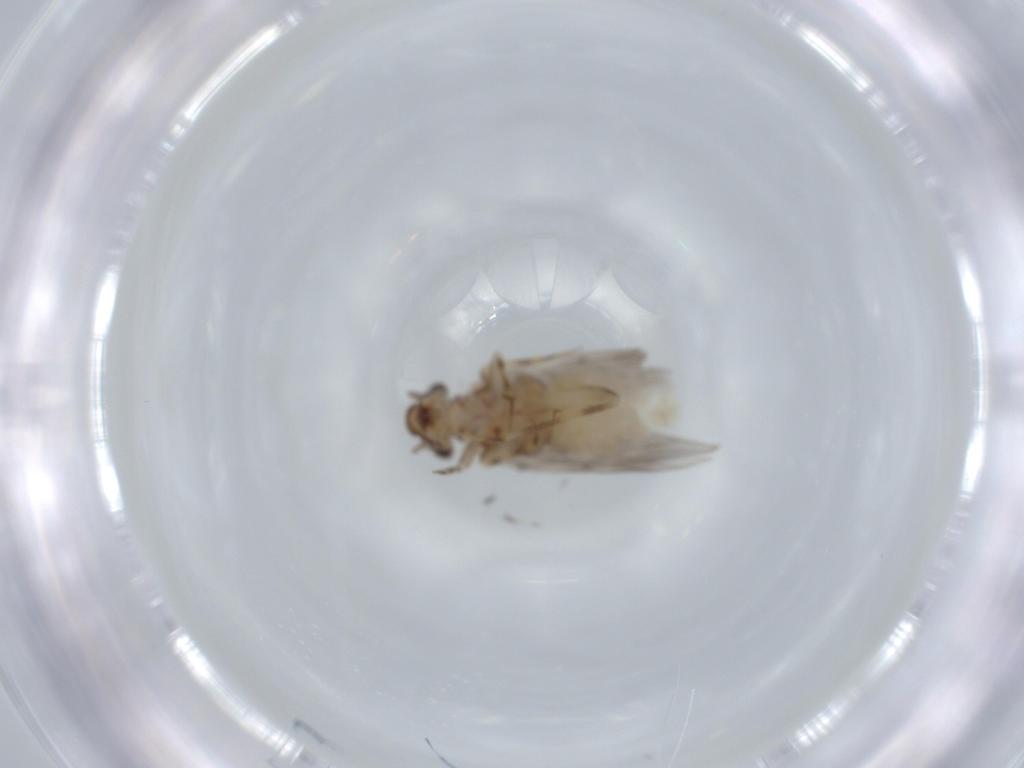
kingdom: Animalia
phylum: Arthropoda
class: Insecta
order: Psocodea
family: Lepidopsocidae
